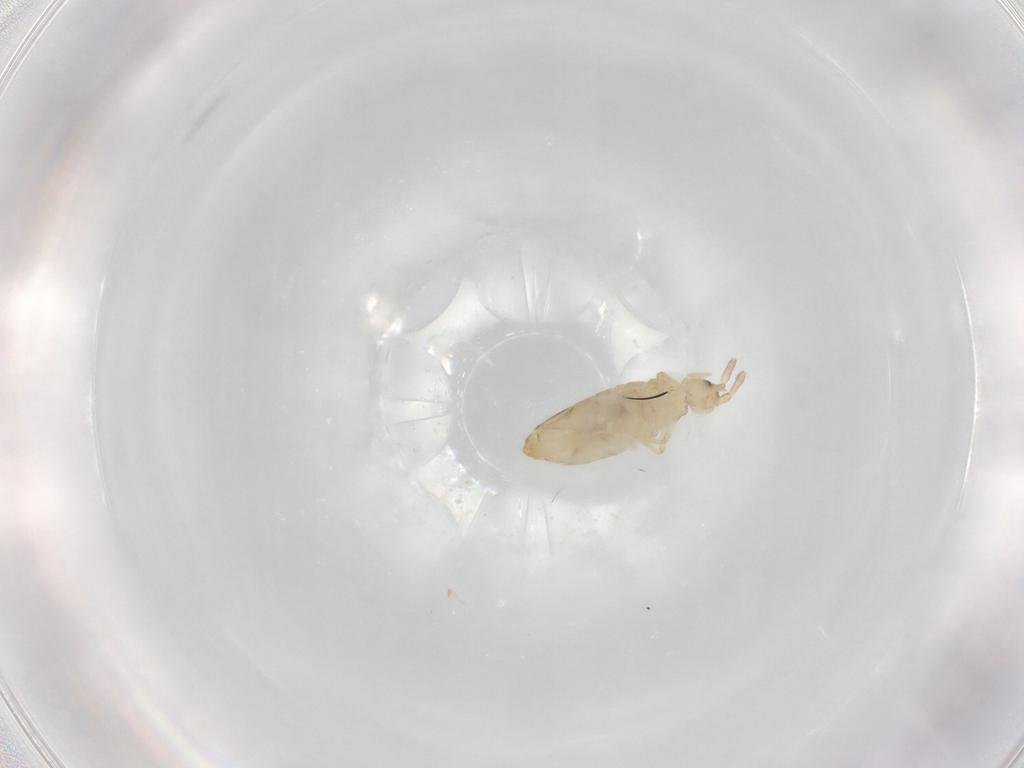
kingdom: Animalia
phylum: Arthropoda
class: Collembola
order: Entomobryomorpha
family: Entomobryidae
